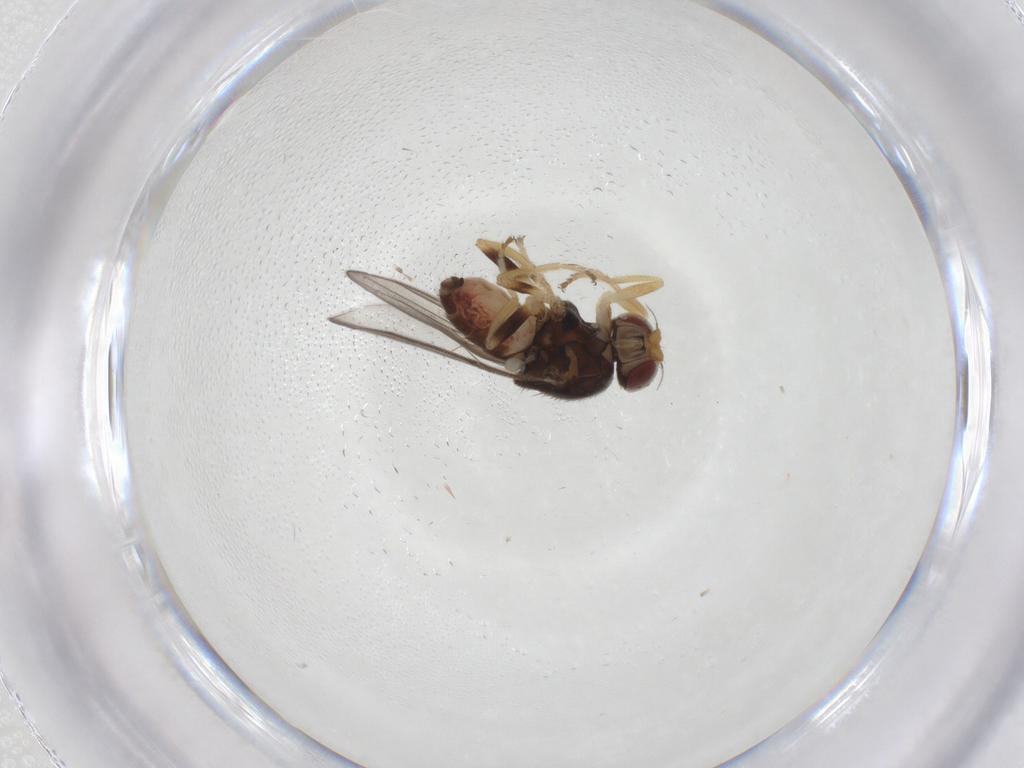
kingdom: Animalia
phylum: Arthropoda
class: Insecta
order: Diptera
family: Chloropidae
